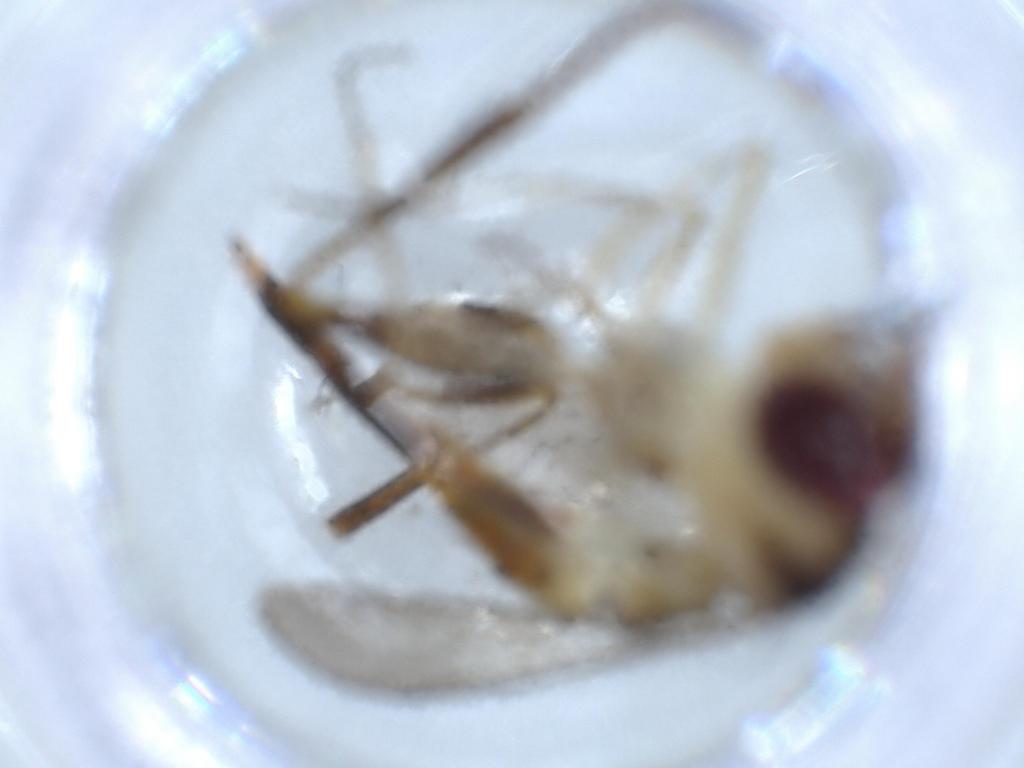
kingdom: Animalia
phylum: Arthropoda
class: Insecta
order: Diptera
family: Conopidae
